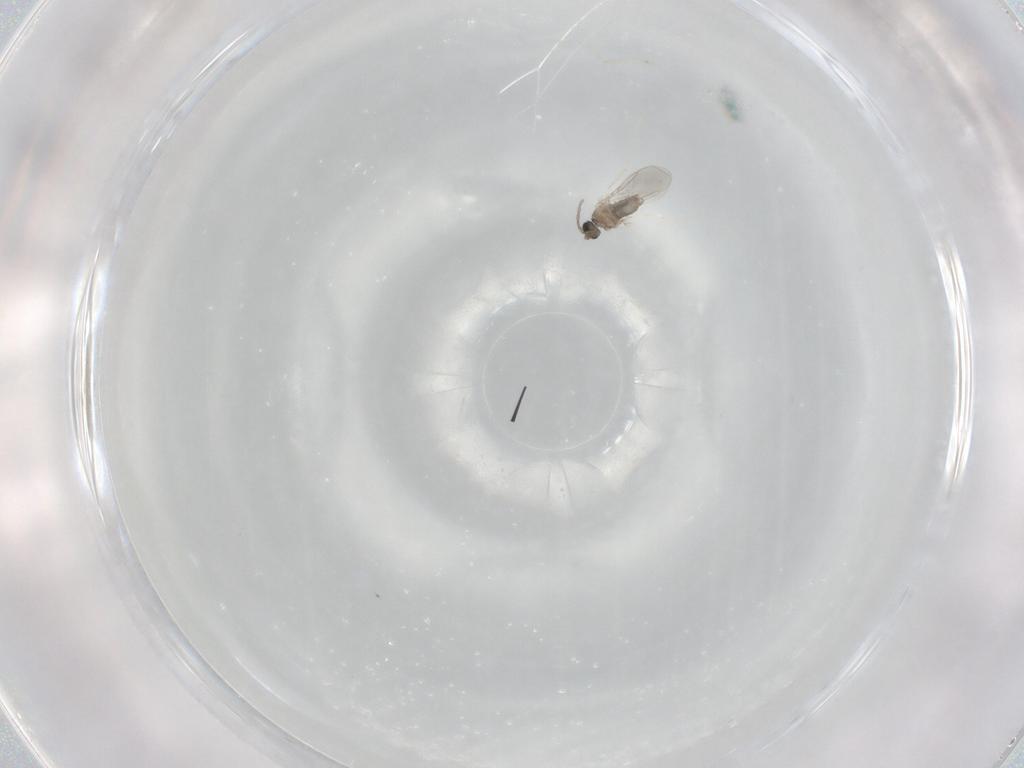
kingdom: Animalia
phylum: Arthropoda
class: Insecta
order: Diptera
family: Cecidomyiidae
